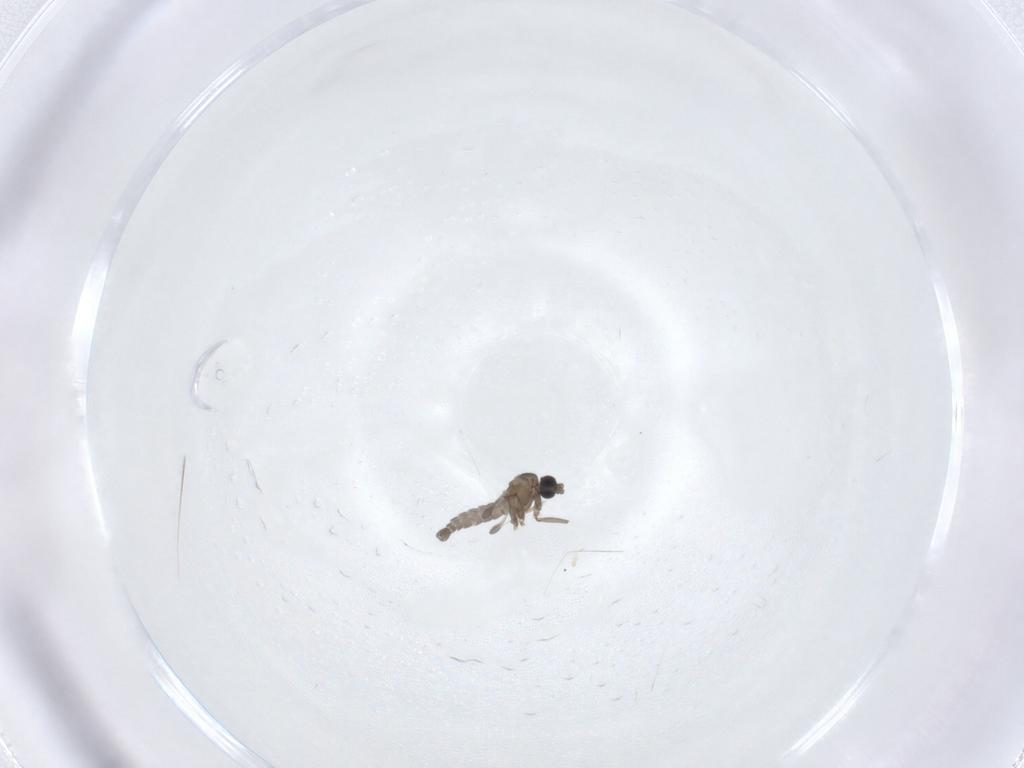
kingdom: Animalia
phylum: Arthropoda
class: Insecta
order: Diptera
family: Sciaridae
